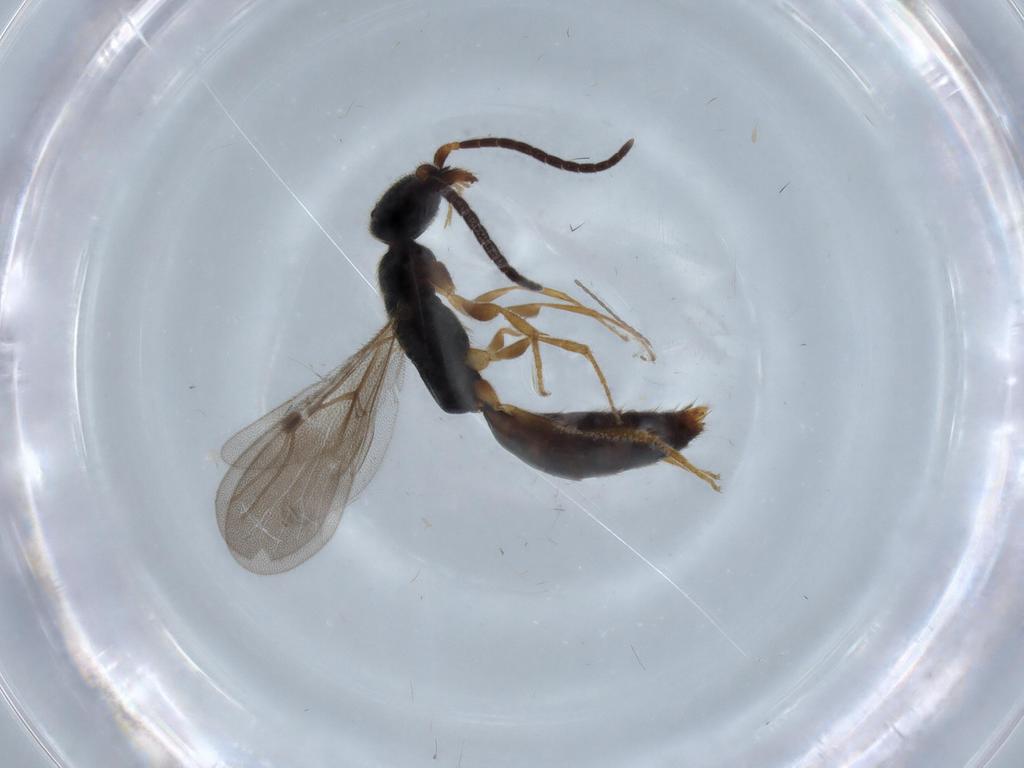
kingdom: Animalia
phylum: Arthropoda
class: Insecta
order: Hymenoptera
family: Bethylidae
